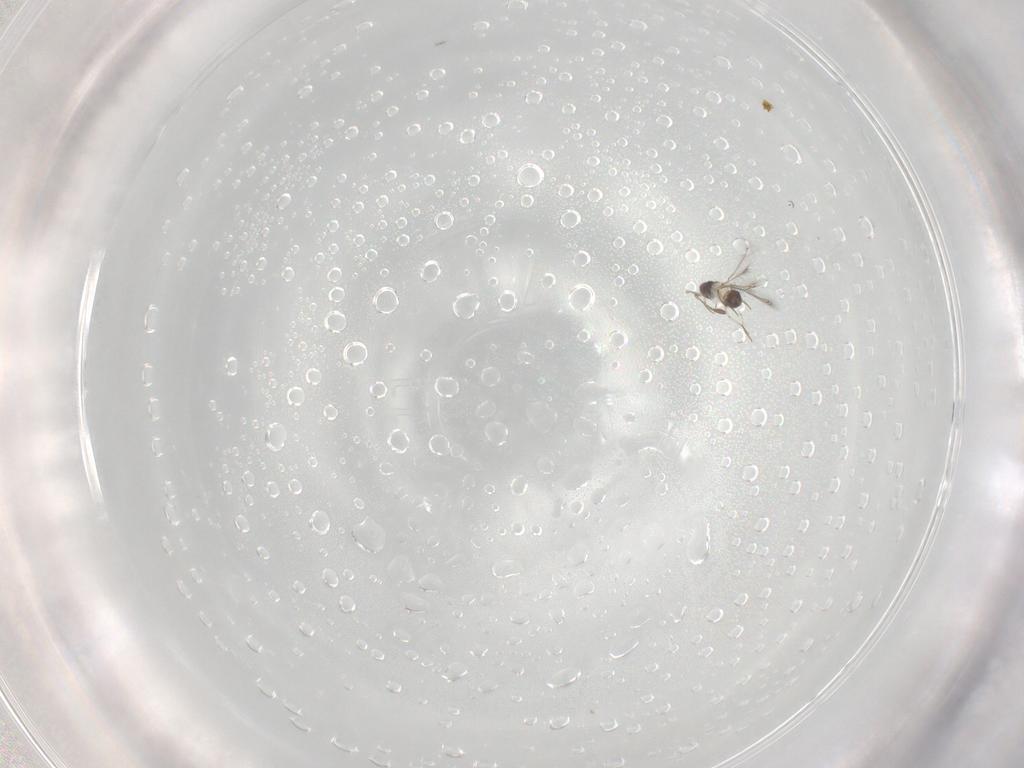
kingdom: Animalia
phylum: Arthropoda
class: Insecta
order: Hymenoptera
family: Mymaridae
